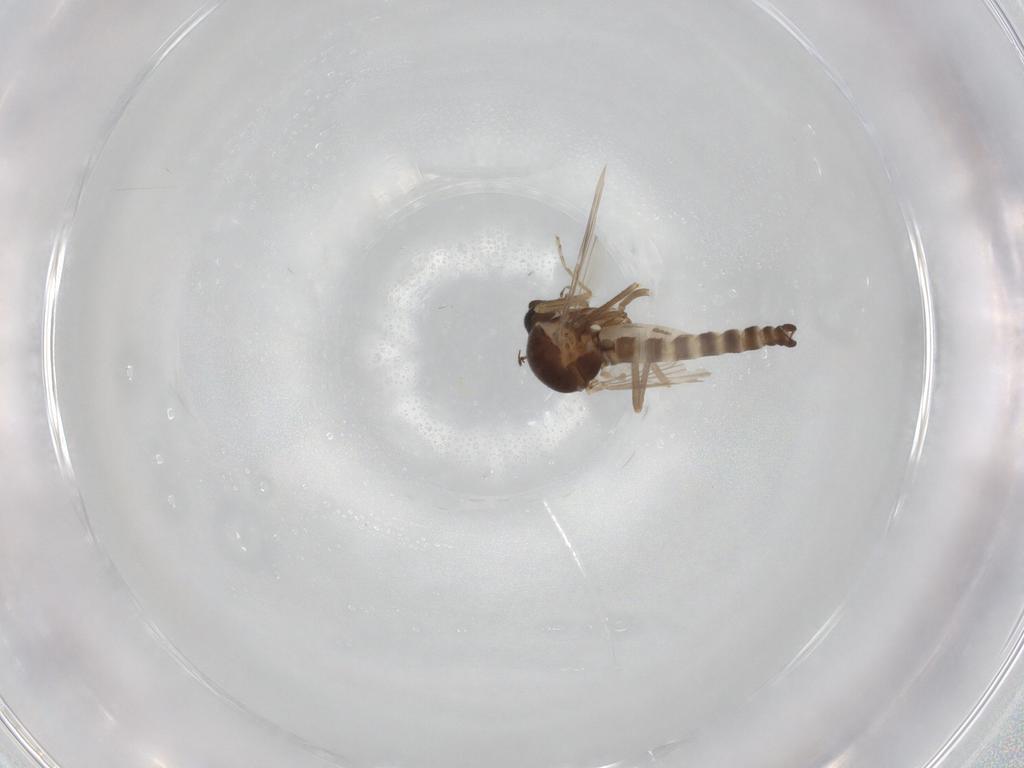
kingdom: Animalia
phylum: Arthropoda
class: Insecta
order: Diptera
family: Ceratopogonidae
